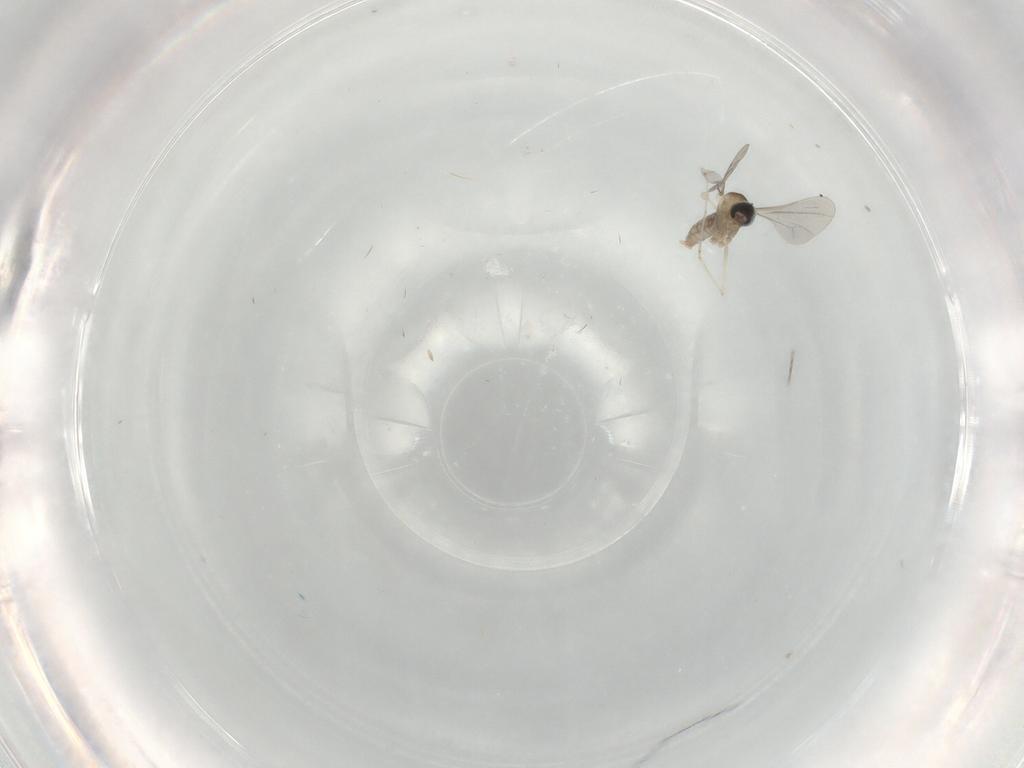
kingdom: Animalia
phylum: Arthropoda
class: Insecta
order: Diptera
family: Cecidomyiidae
